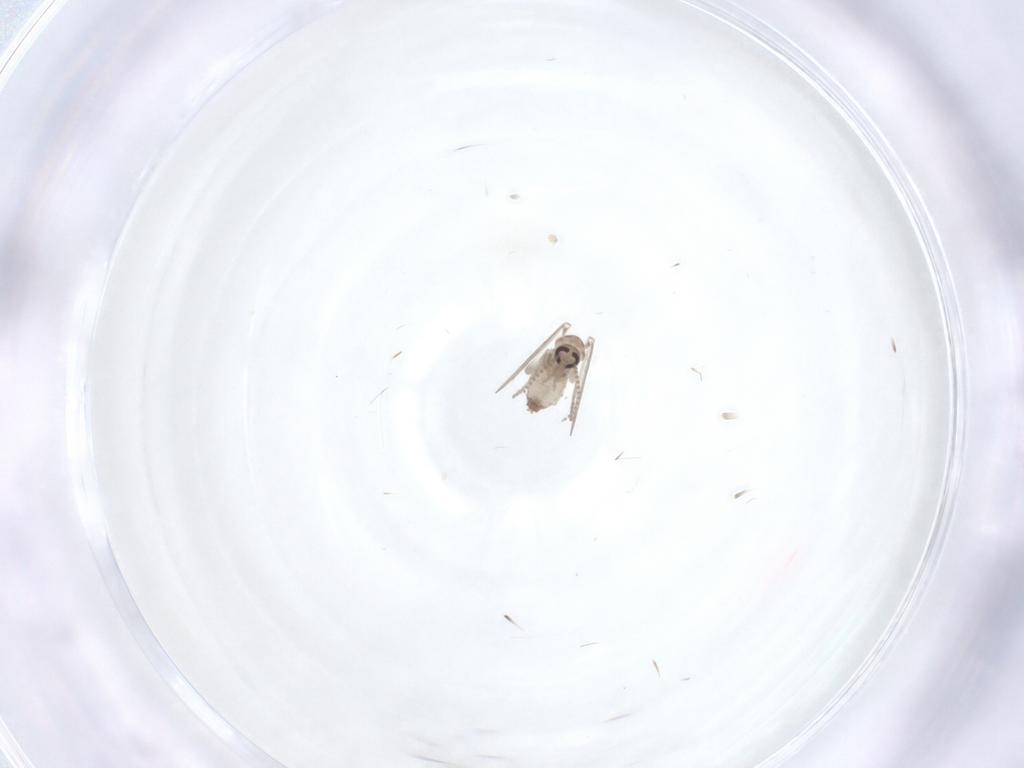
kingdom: Animalia
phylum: Arthropoda
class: Insecta
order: Diptera
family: Psychodidae
